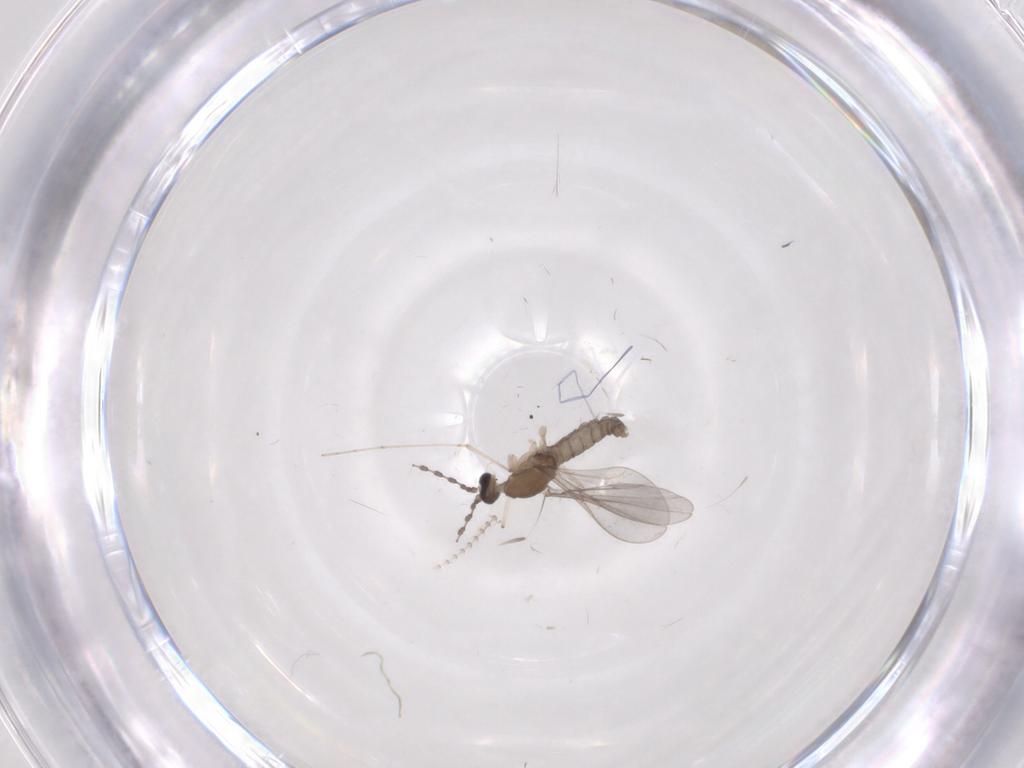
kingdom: Animalia
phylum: Arthropoda
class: Insecta
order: Diptera
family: Cecidomyiidae
